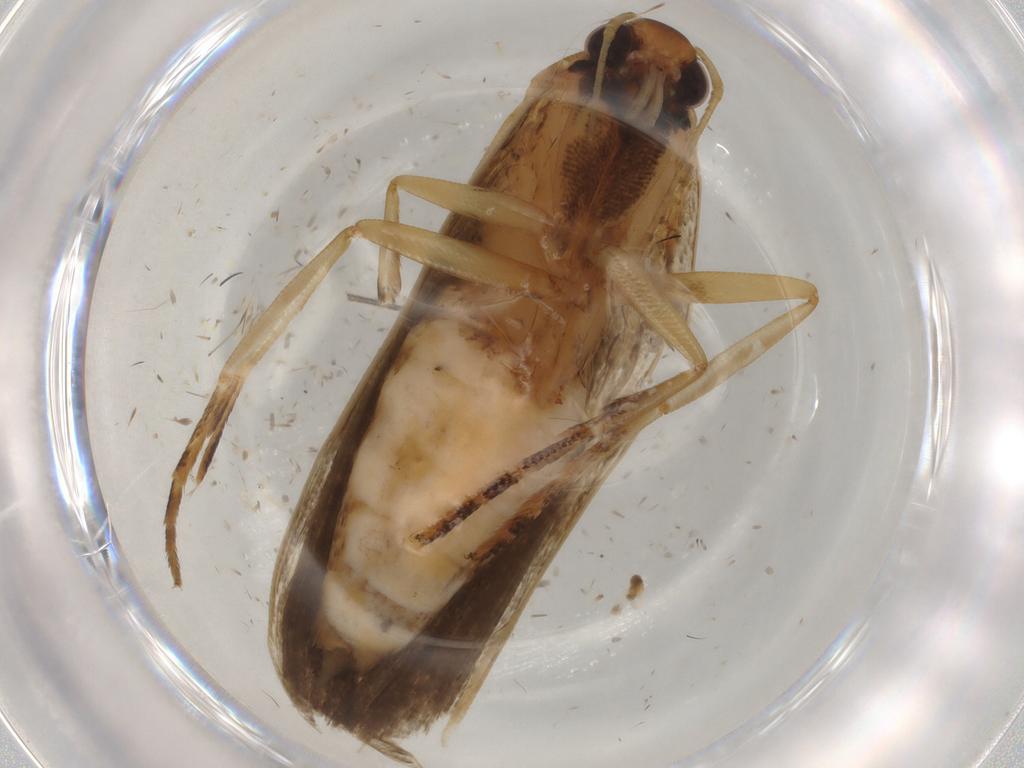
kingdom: Animalia
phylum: Arthropoda
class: Insecta
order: Lepidoptera
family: Gelechiidae
